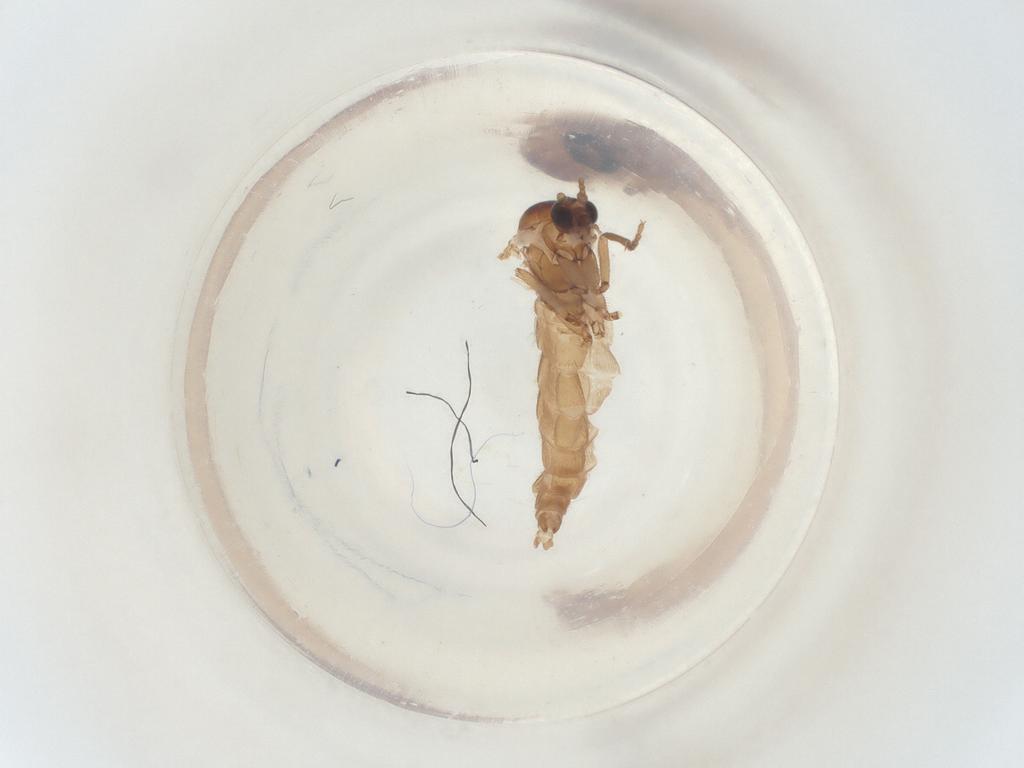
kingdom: Animalia
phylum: Arthropoda
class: Insecta
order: Diptera
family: Sciaridae
